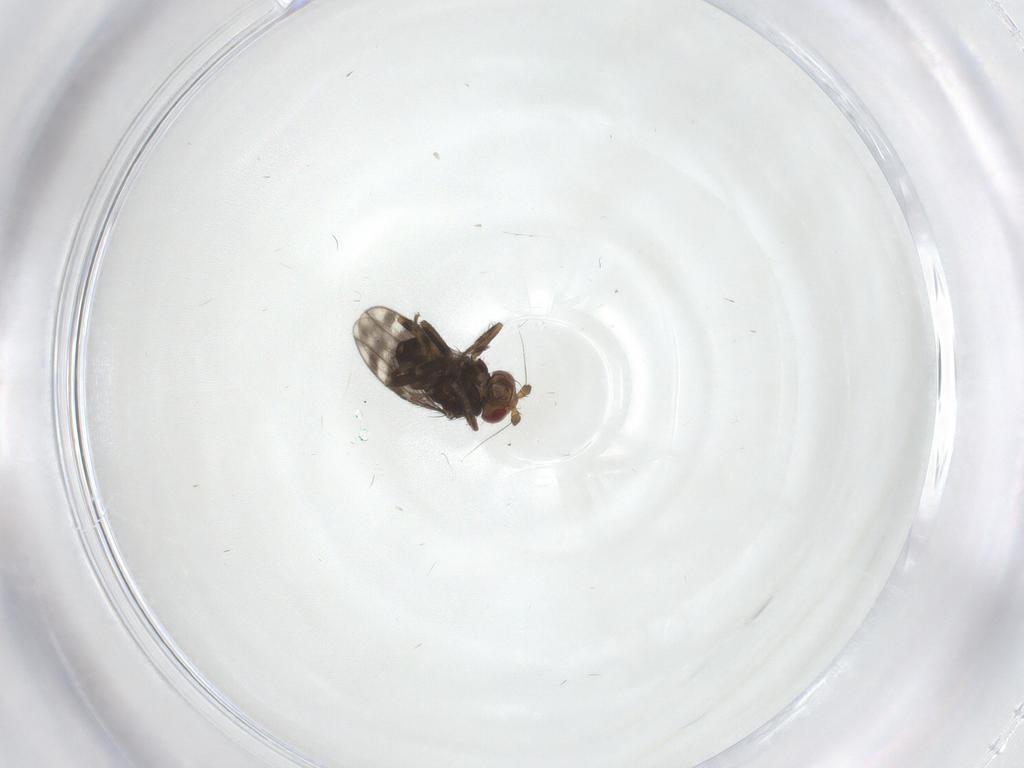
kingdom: Animalia
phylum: Arthropoda
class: Insecta
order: Diptera
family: Sphaeroceridae
